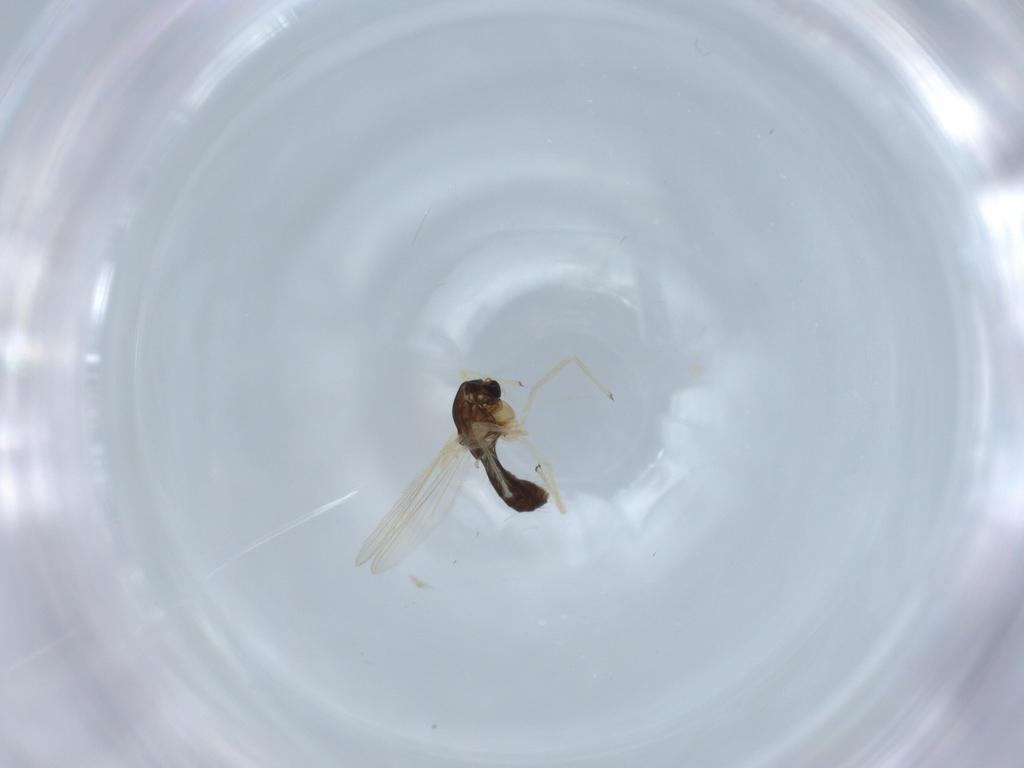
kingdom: Animalia
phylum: Arthropoda
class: Insecta
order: Diptera
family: Chironomidae
